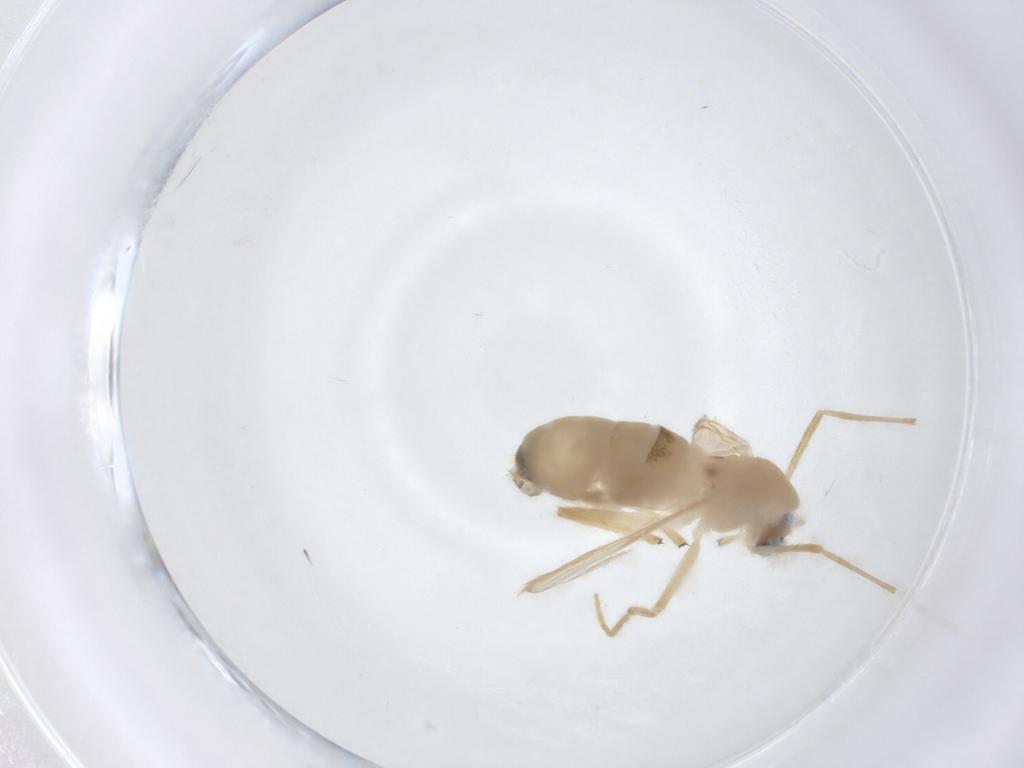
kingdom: Animalia
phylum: Arthropoda
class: Insecta
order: Diptera
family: Chironomidae
